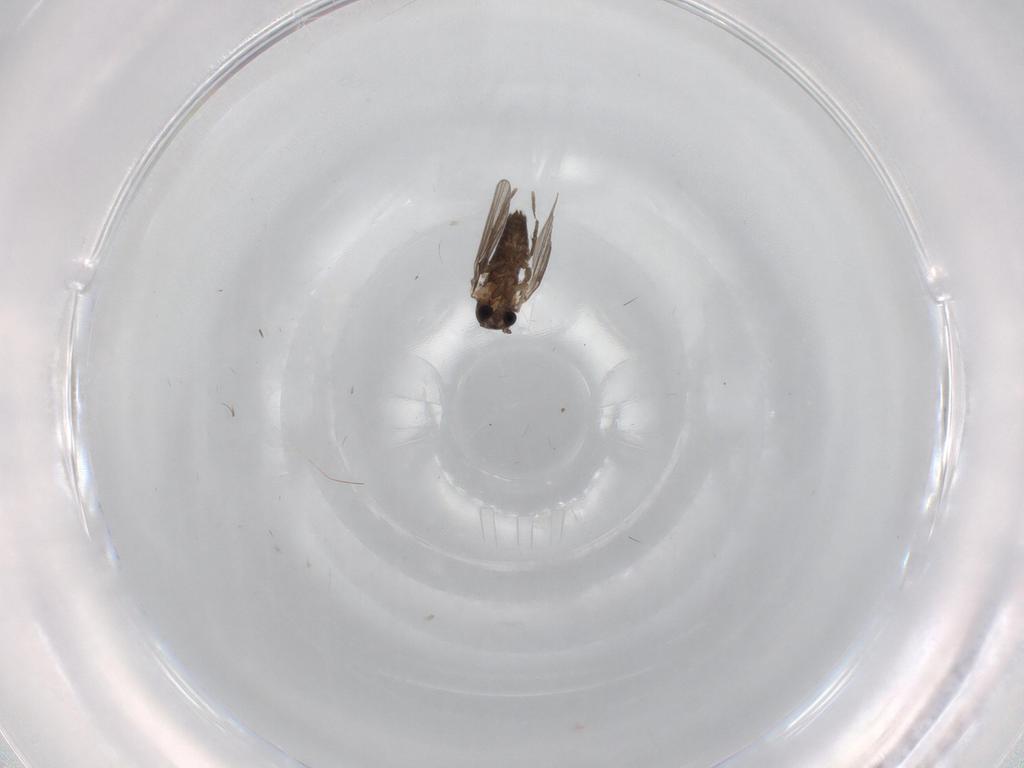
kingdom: Animalia
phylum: Arthropoda
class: Insecta
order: Diptera
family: Psychodidae
